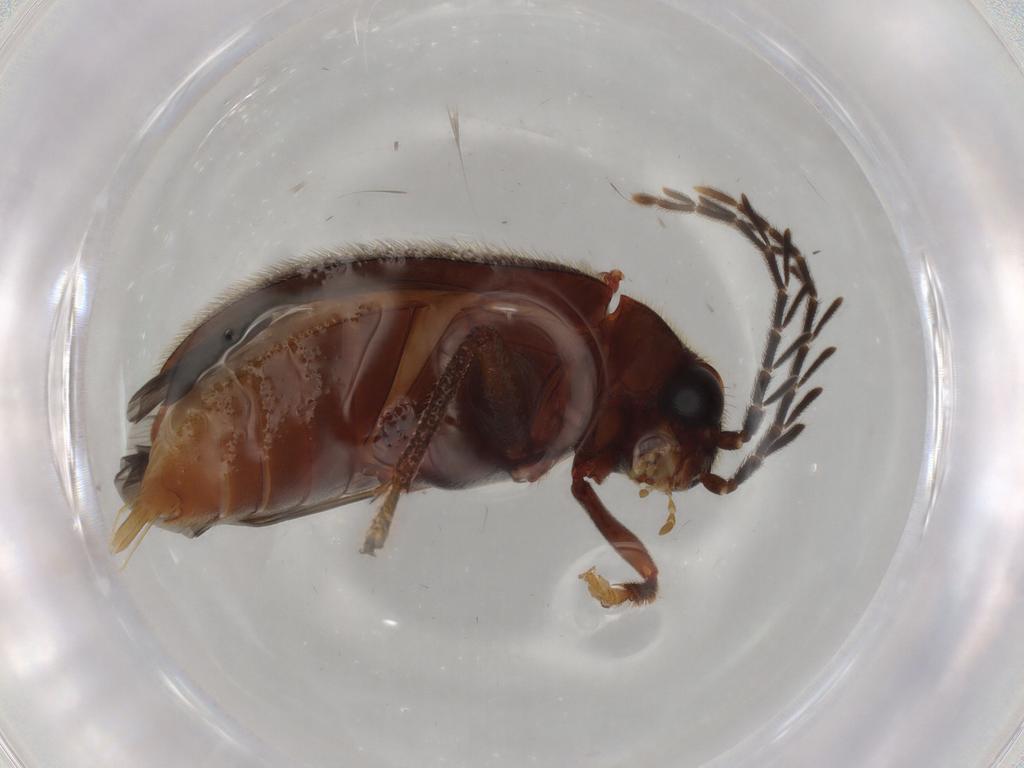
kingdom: Animalia
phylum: Arthropoda
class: Insecta
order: Coleoptera
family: Ptilodactylidae
